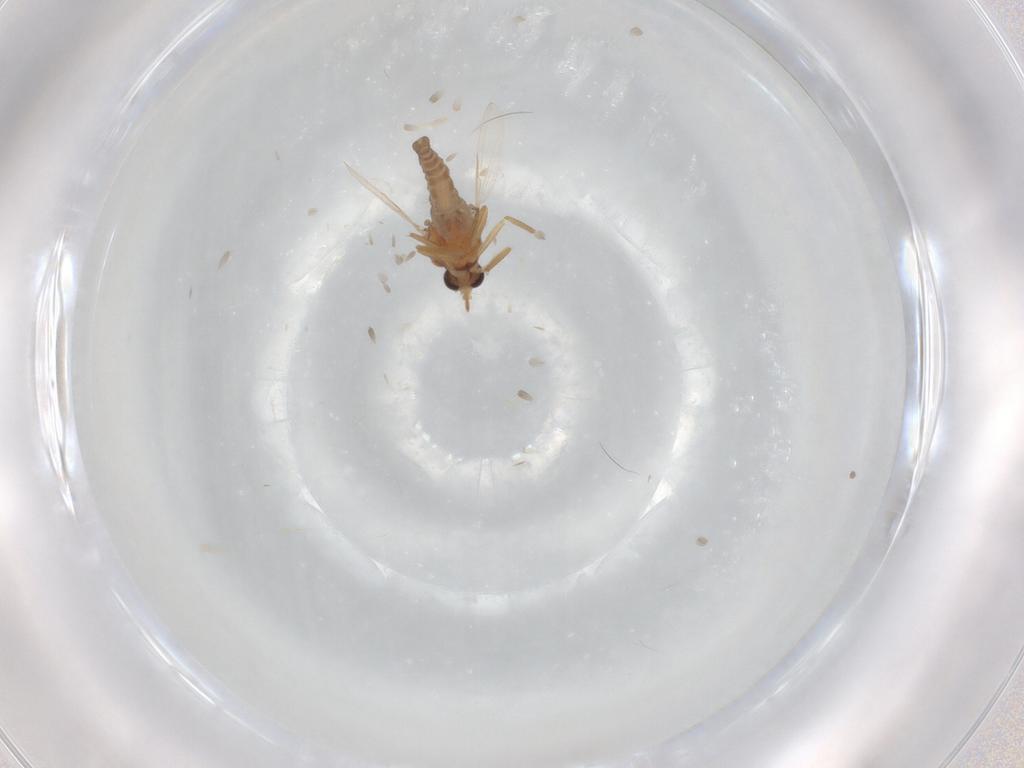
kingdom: Animalia
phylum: Arthropoda
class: Insecta
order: Diptera
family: Ceratopogonidae
